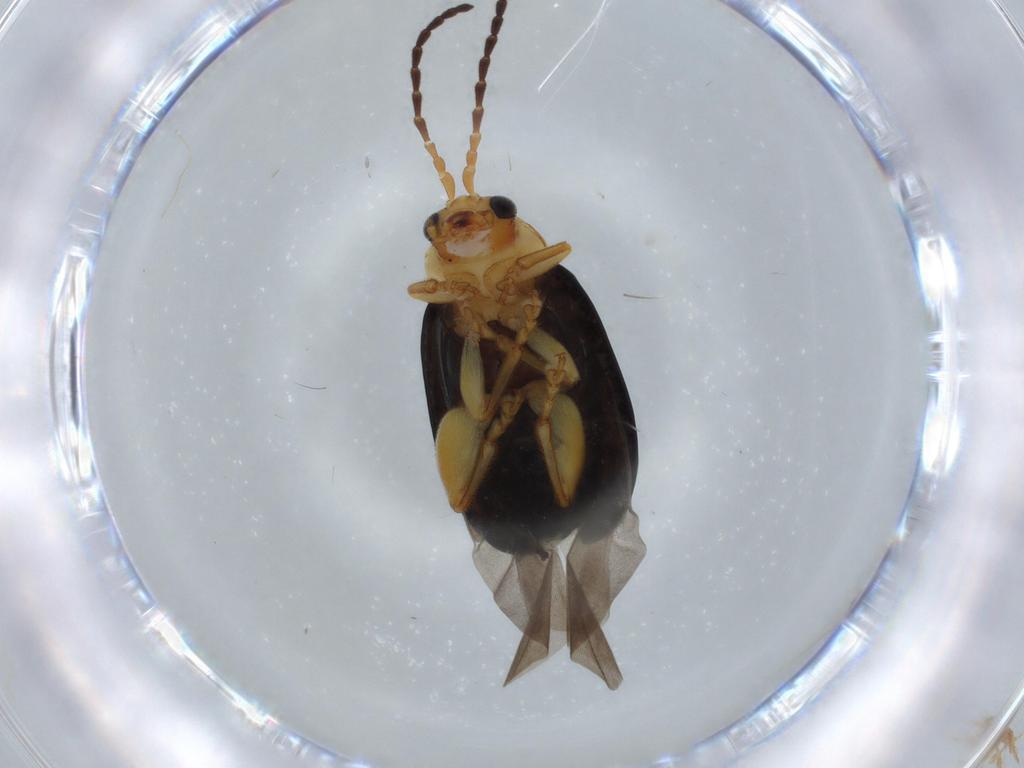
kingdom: Animalia
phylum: Arthropoda
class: Insecta
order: Coleoptera
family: Chrysomelidae
